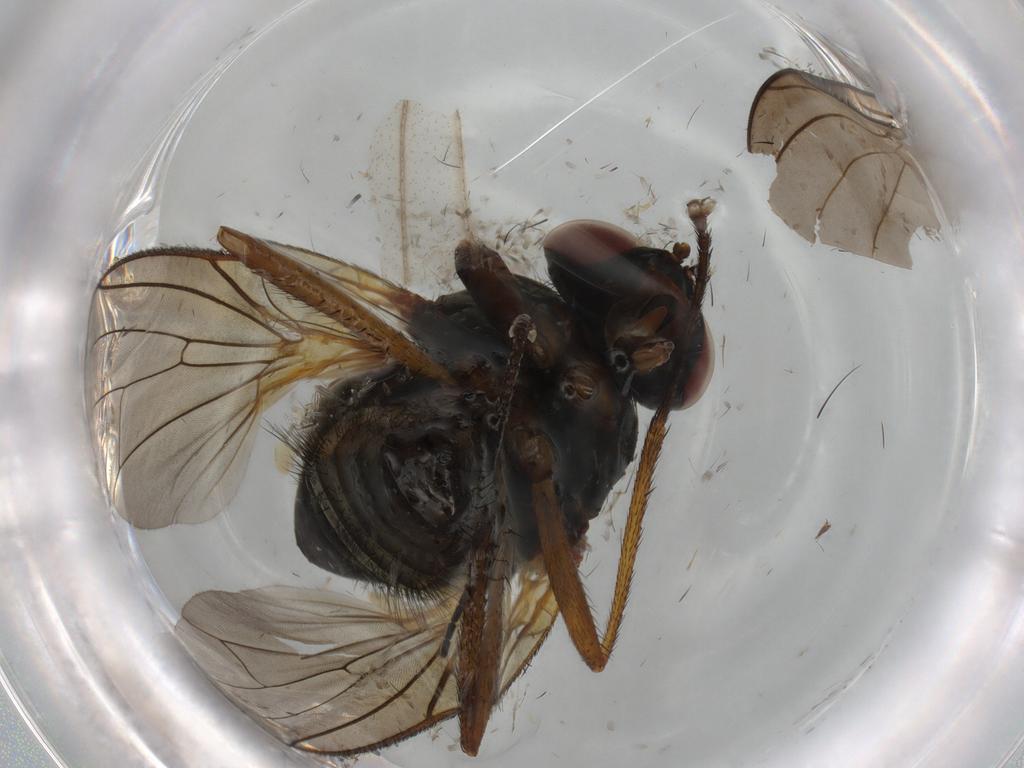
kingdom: Animalia
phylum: Arthropoda
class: Insecta
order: Diptera
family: Anthomyiidae
